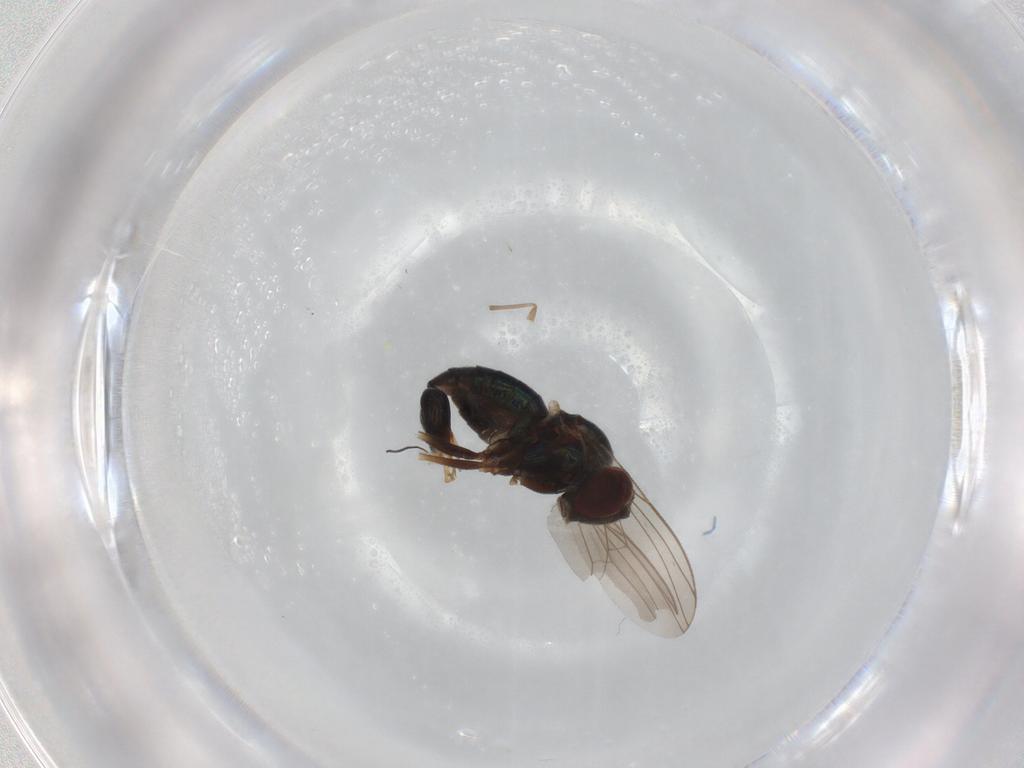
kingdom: Animalia
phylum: Arthropoda
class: Insecta
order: Diptera
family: Dolichopodidae
